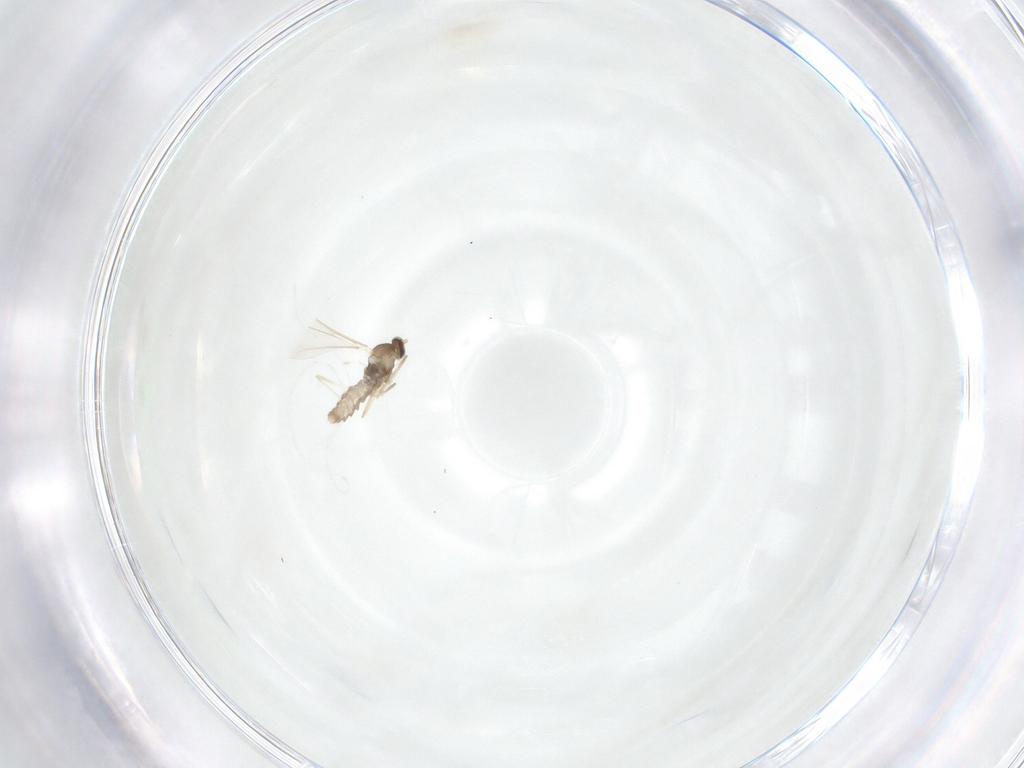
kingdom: Animalia
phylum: Arthropoda
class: Insecta
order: Diptera
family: Cecidomyiidae
